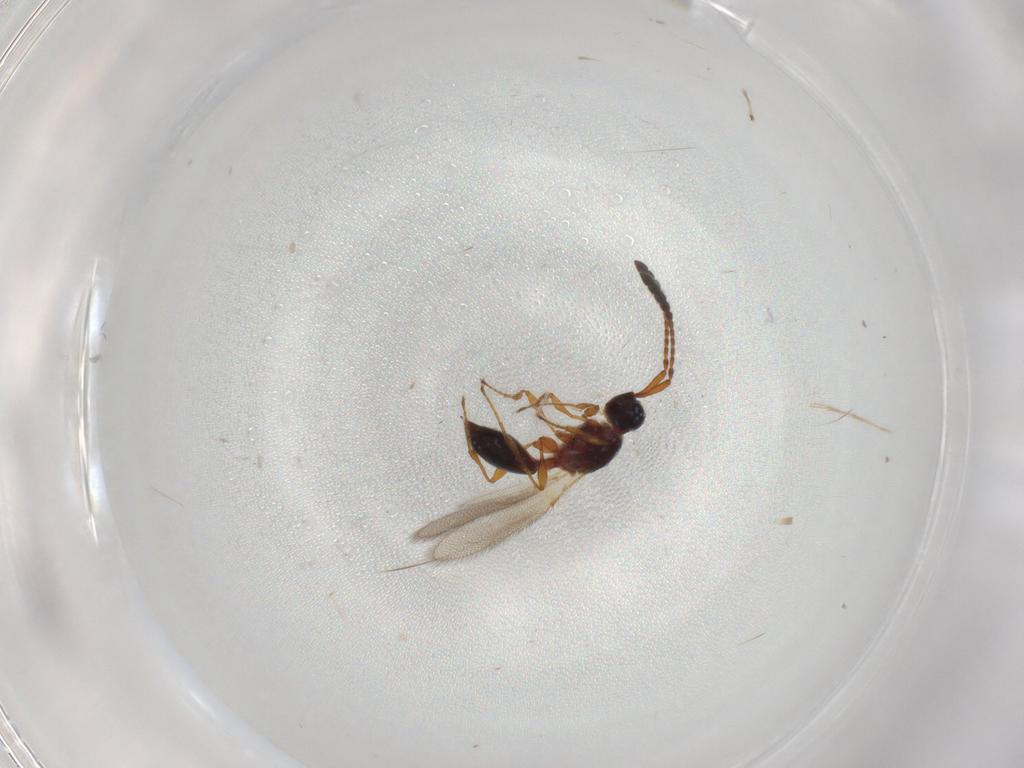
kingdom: Animalia
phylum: Arthropoda
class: Insecta
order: Hymenoptera
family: Diapriidae
